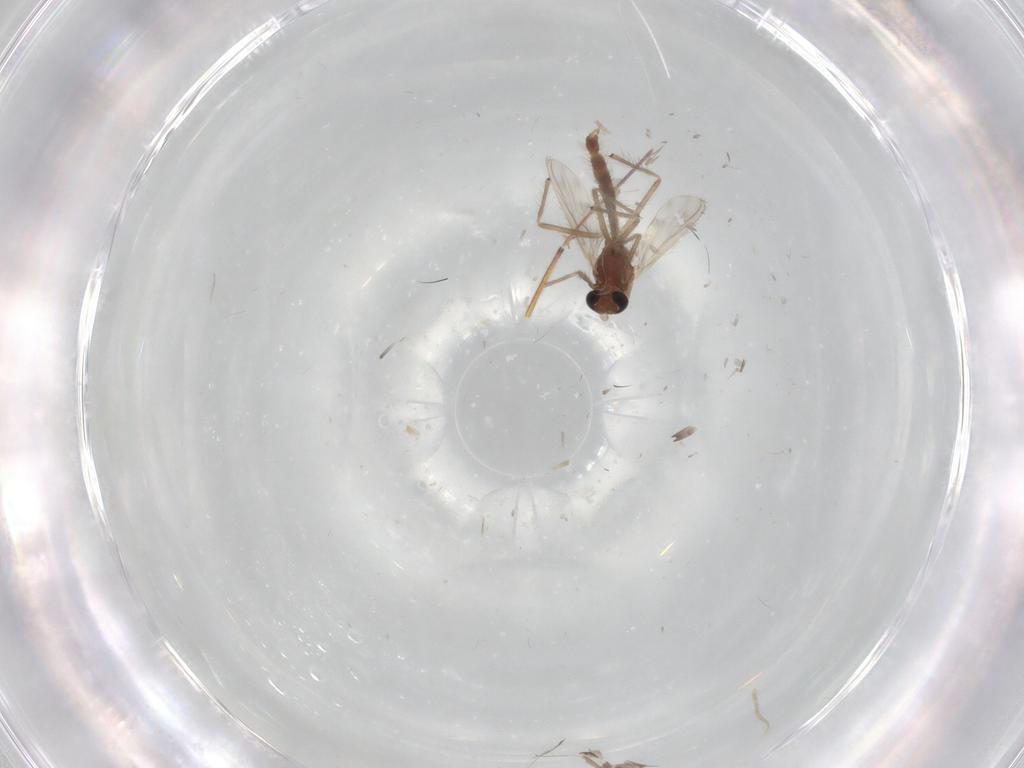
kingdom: Animalia
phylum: Arthropoda
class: Insecta
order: Diptera
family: Chironomidae
